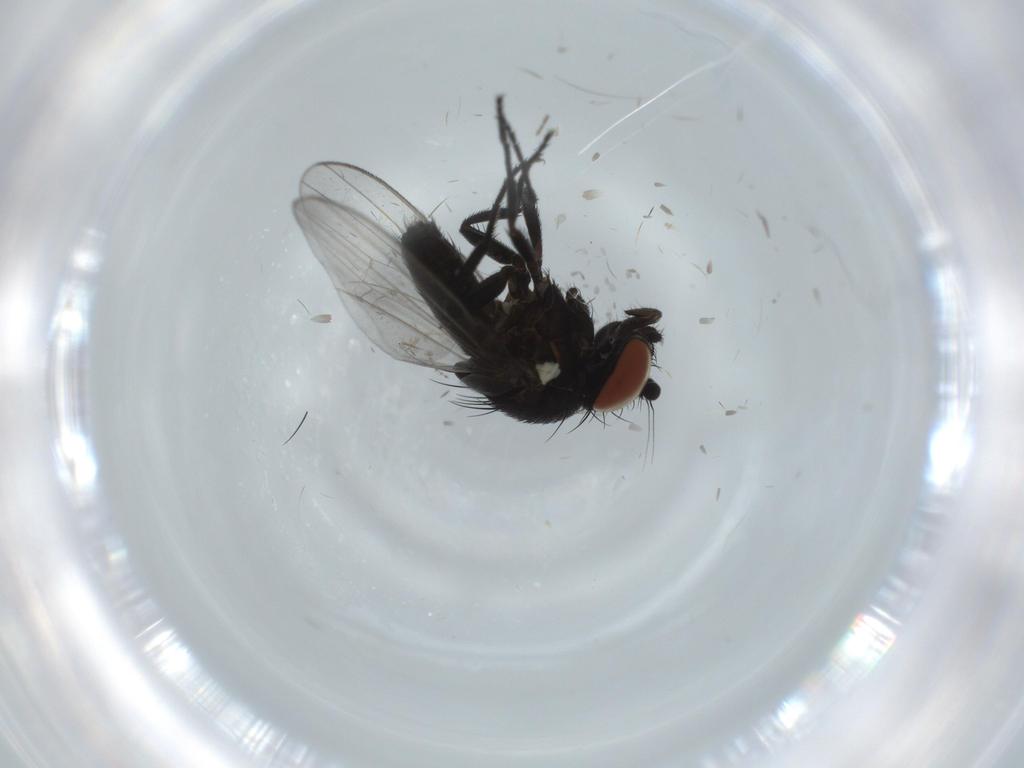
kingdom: Animalia
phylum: Arthropoda
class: Insecta
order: Diptera
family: Milichiidae
